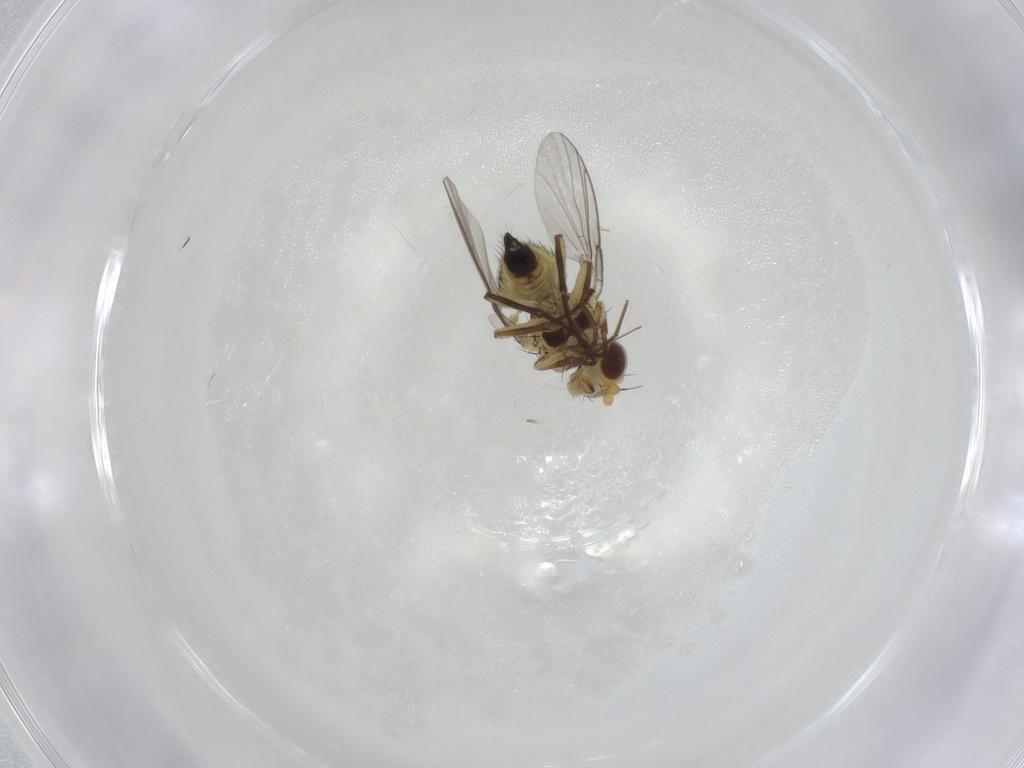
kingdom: Animalia
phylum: Arthropoda
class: Insecta
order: Diptera
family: Agromyzidae
